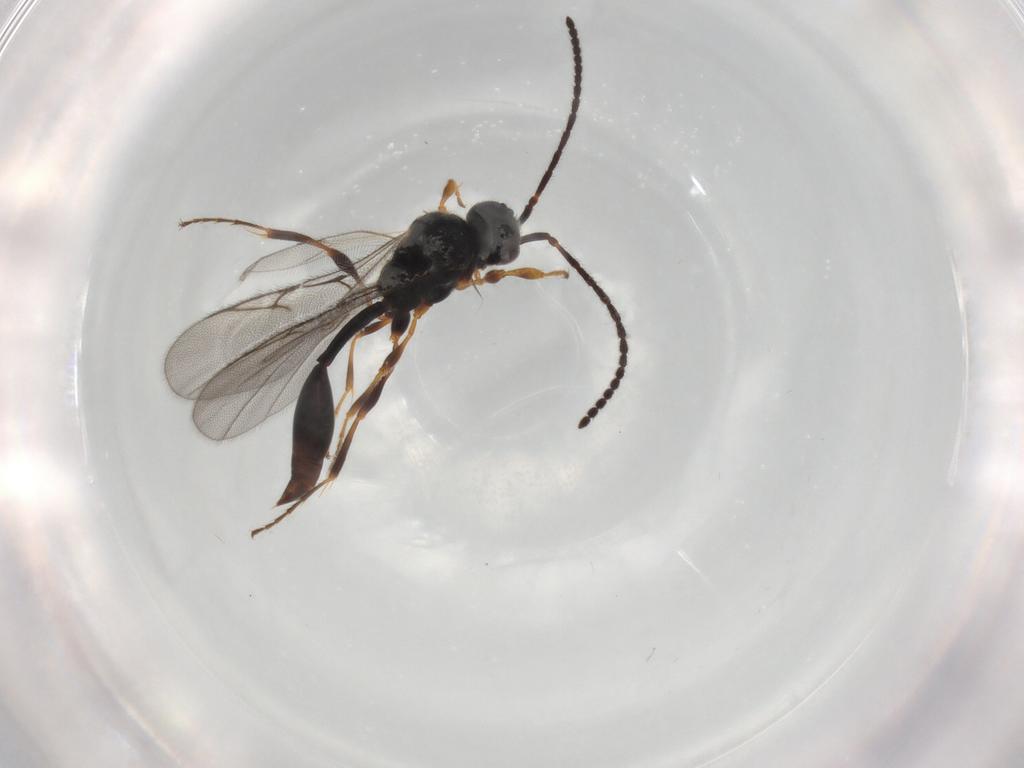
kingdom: Animalia
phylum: Arthropoda
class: Insecta
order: Hymenoptera
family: Diapriidae
